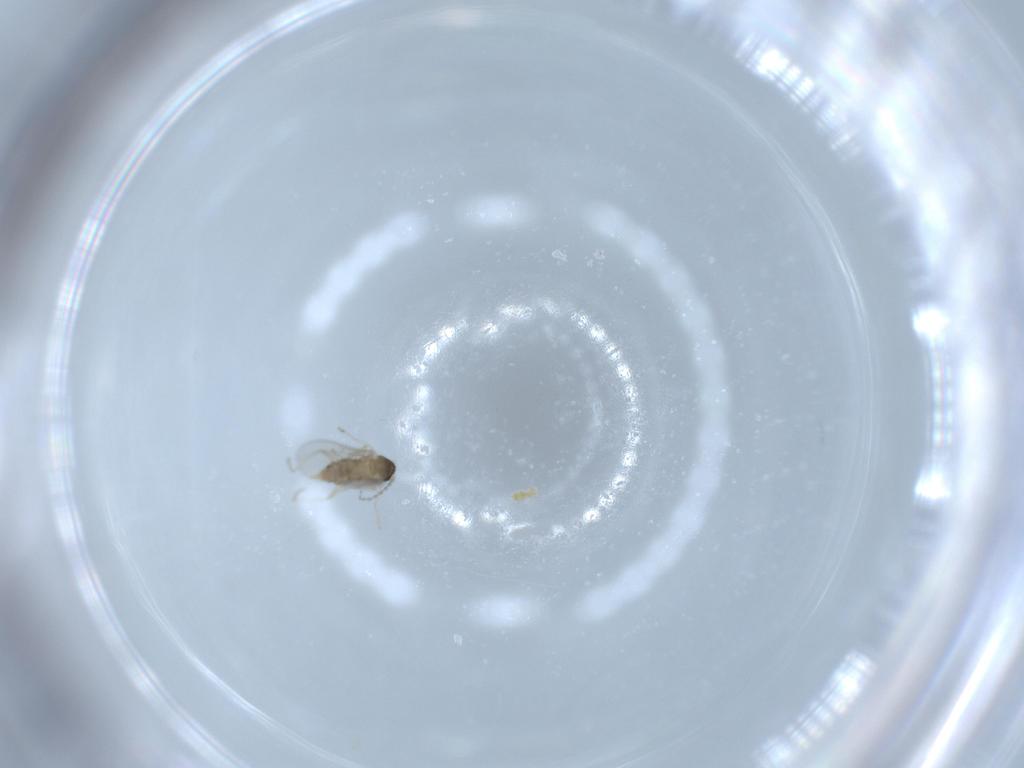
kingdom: Animalia
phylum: Arthropoda
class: Insecta
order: Diptera
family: Cecidomyiidae
